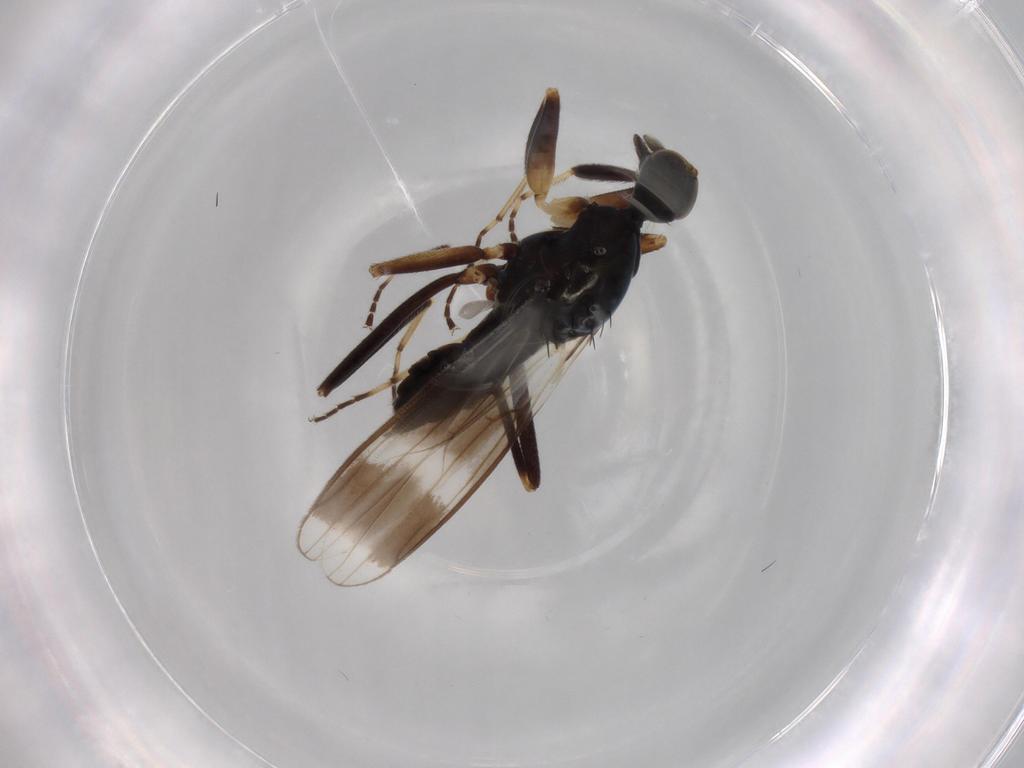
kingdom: Animalia
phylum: Arthropoda
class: Insecta
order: Diptera
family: Hybotidae
